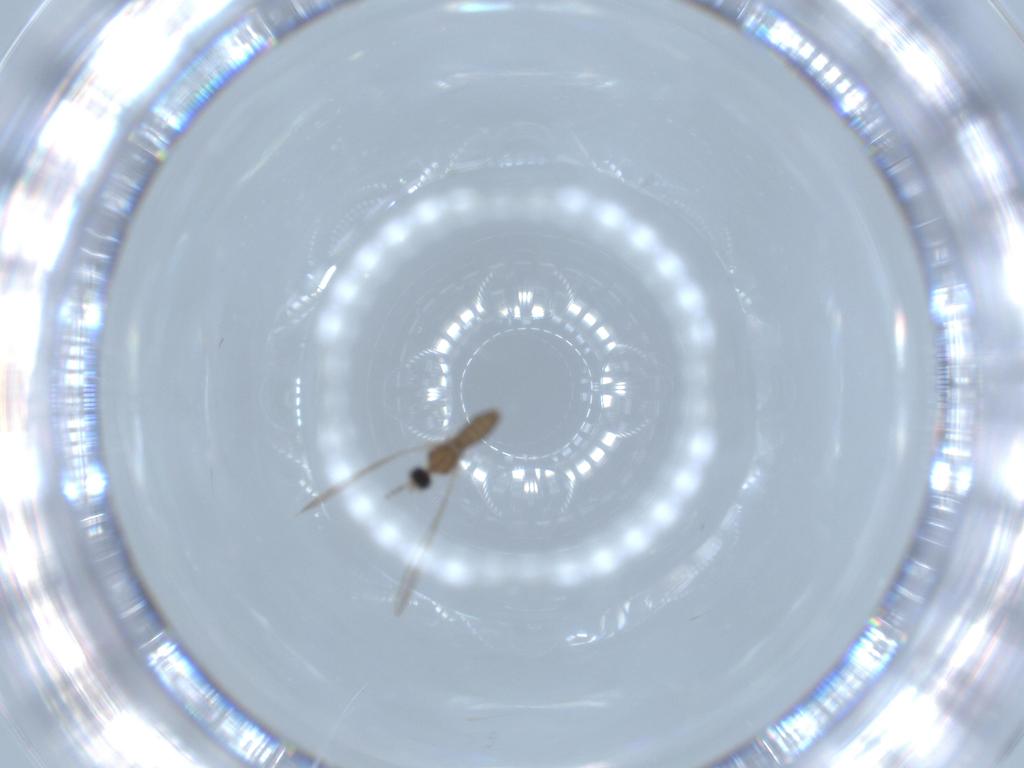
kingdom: Animalia
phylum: Arthropoda
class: Insecta
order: Diptera
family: Cecidomyiidae
